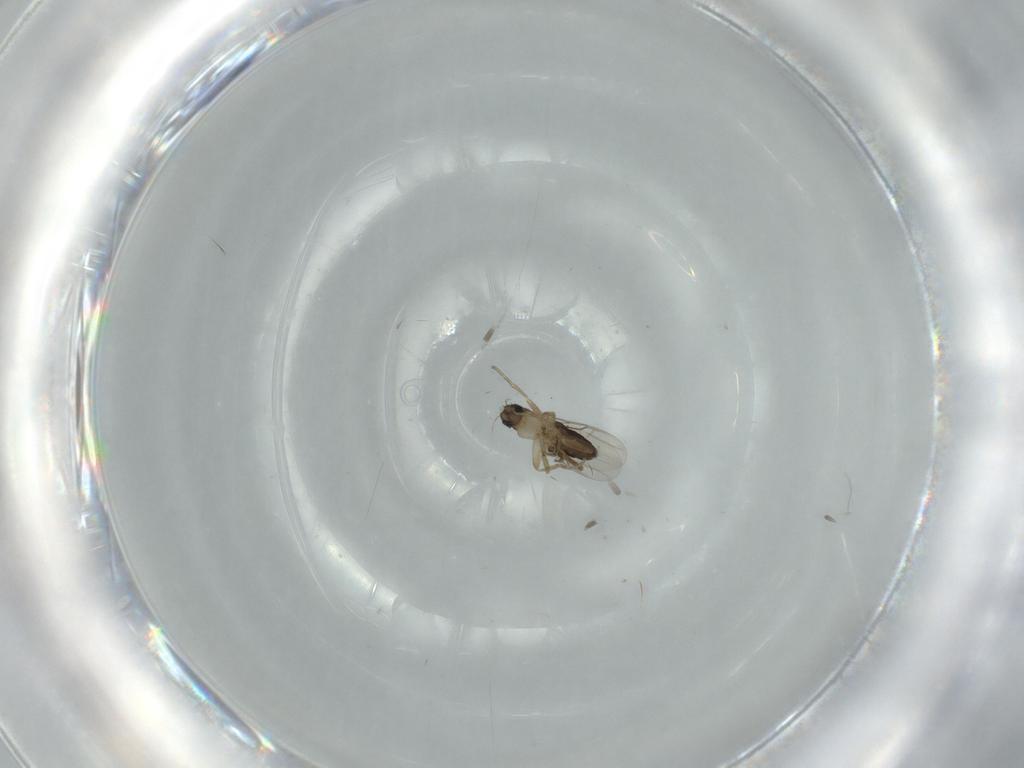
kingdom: Animalia
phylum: Arthropoda
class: Insecta
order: Diptera
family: Phoridae
